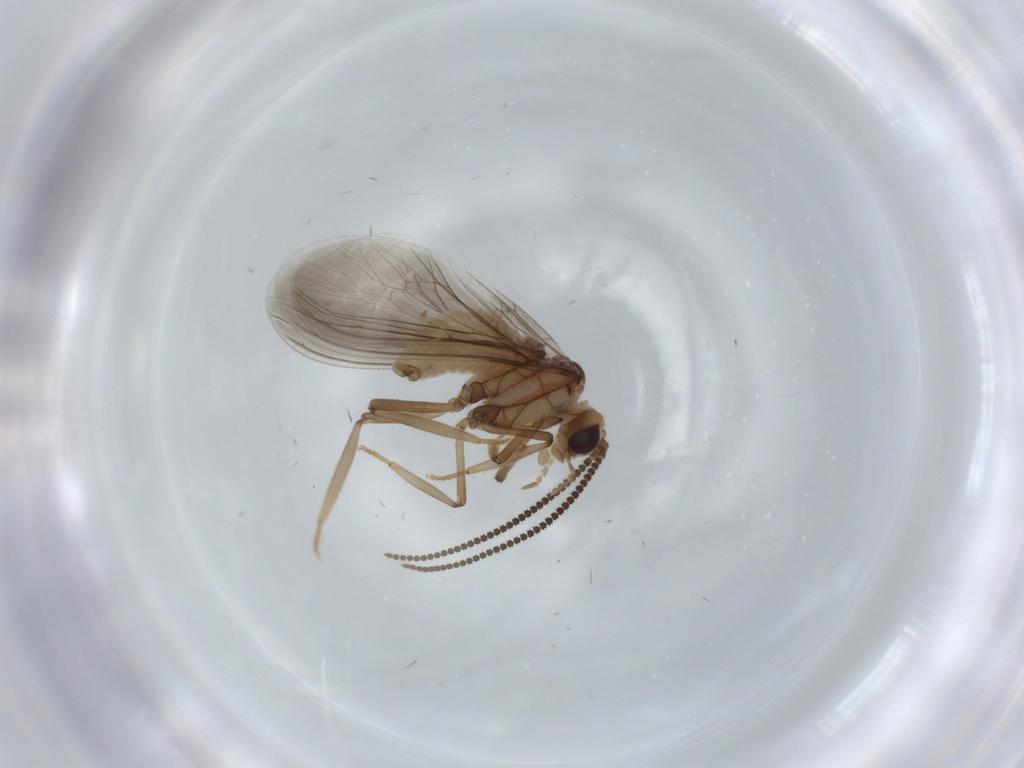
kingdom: Animalia
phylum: Arthropoda
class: Insecta
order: Neuroptera
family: Coniopterygidae
